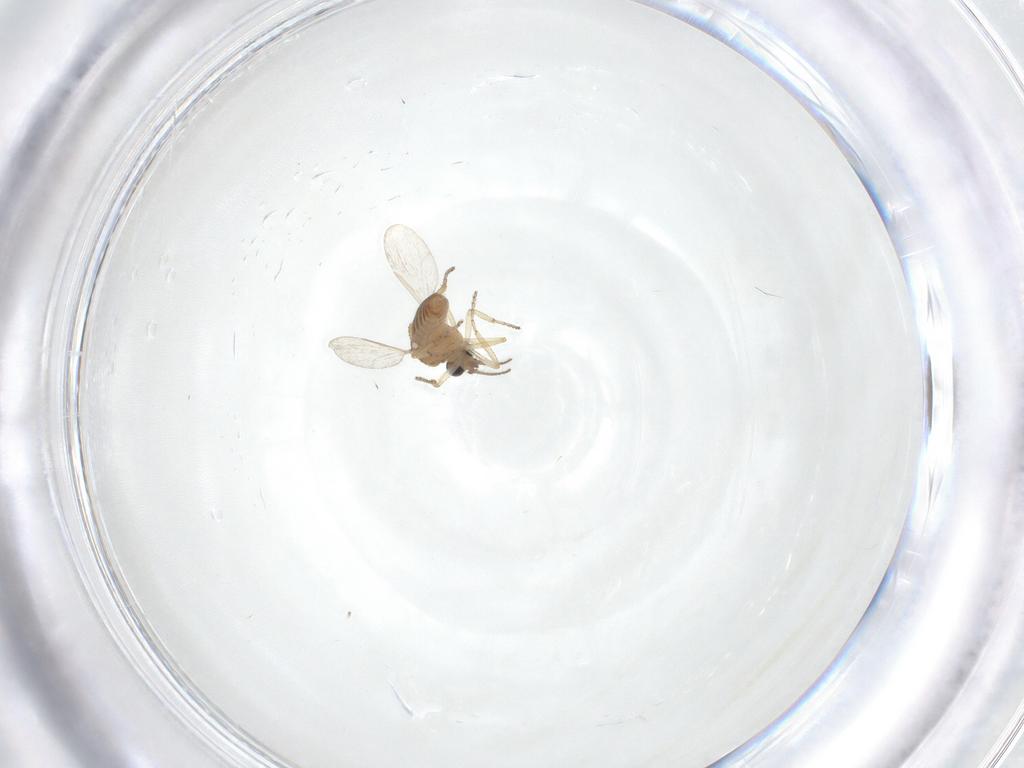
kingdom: Animalia
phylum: Arthropoda
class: Insecta
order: Diptera
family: Ceratopogonidae
